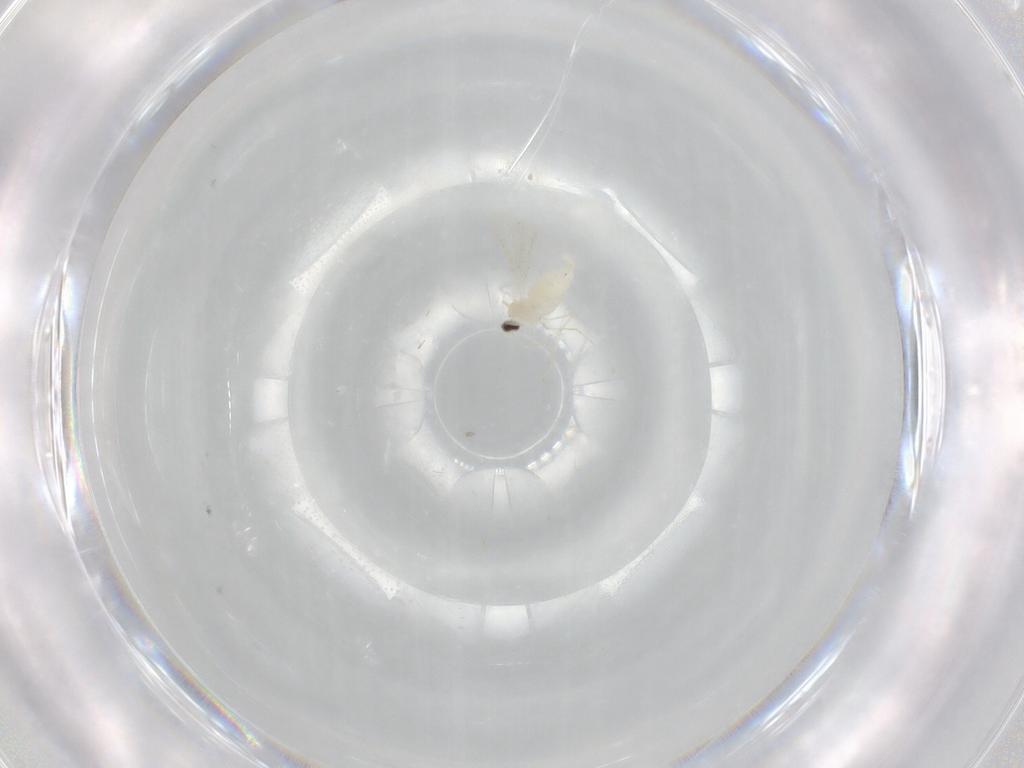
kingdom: Animalia
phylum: Arthropoda
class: Insecta
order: Diptera
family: Cecidomyiidae
